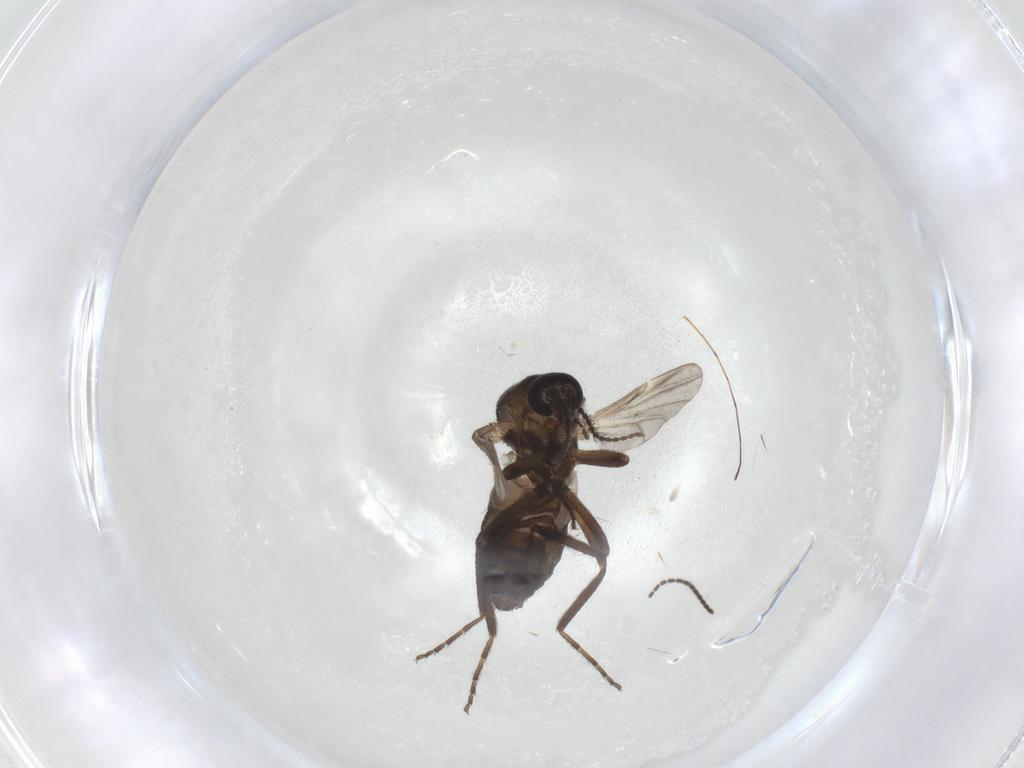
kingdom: Animalia
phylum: Arthropoda
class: Insecta
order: Diptera
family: Ceratopogonidae
